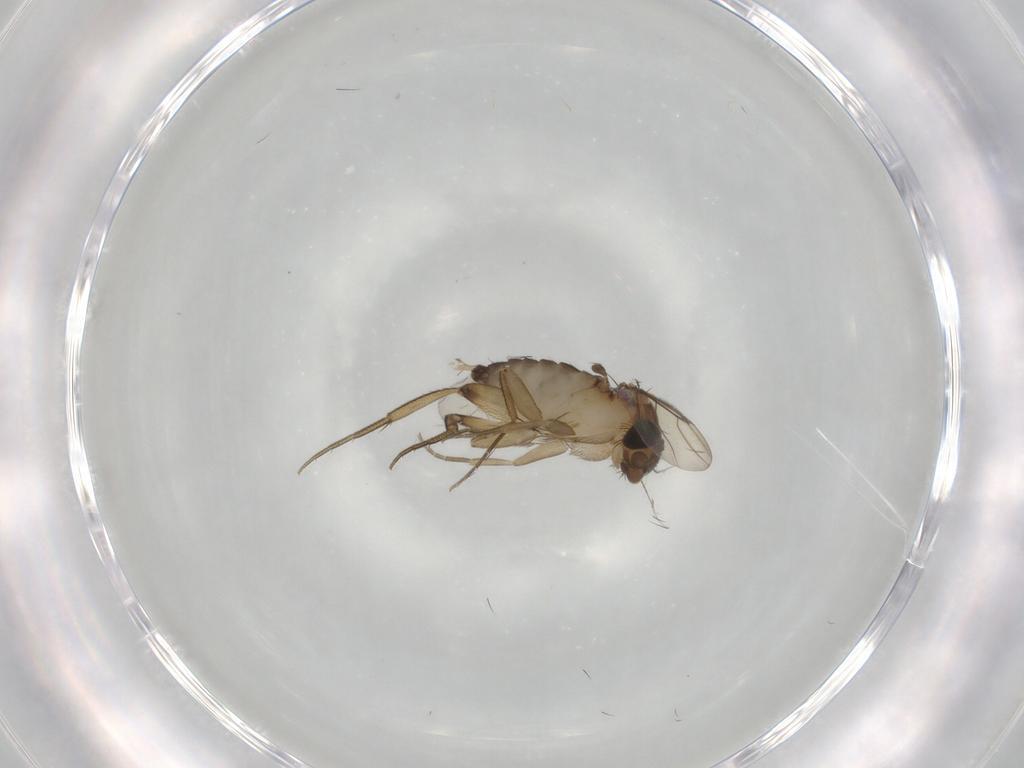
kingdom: Animalia
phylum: Arthropoda
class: Insecta
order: Diptera
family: Phoridae
